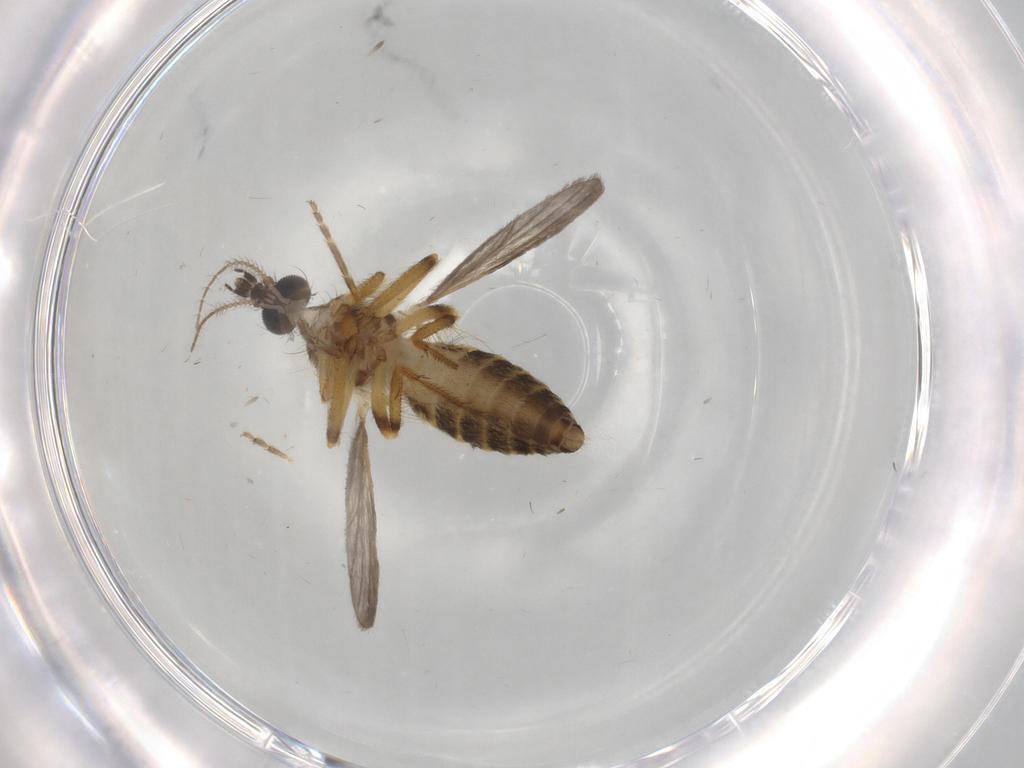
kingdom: Animalia
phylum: Arthropoda
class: Insecta
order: Diptera
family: Ceratopogonidae
